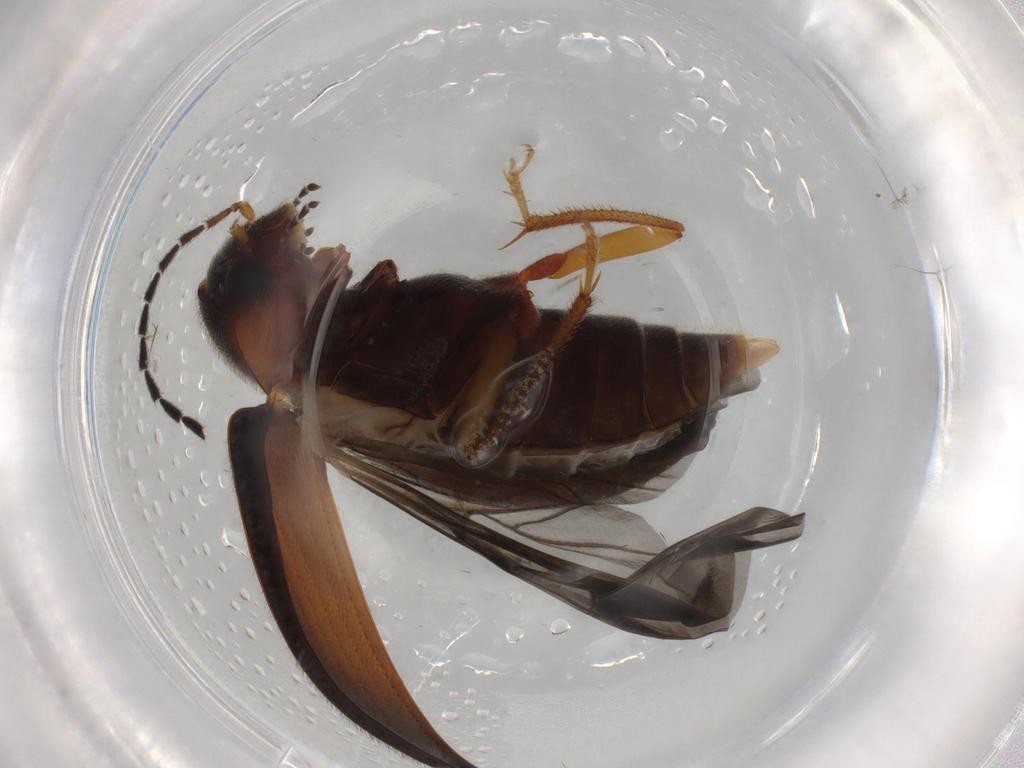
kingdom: Animalia
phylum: Arthropoda
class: Insecta
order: Coleoptera
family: Ptilodactylidae
